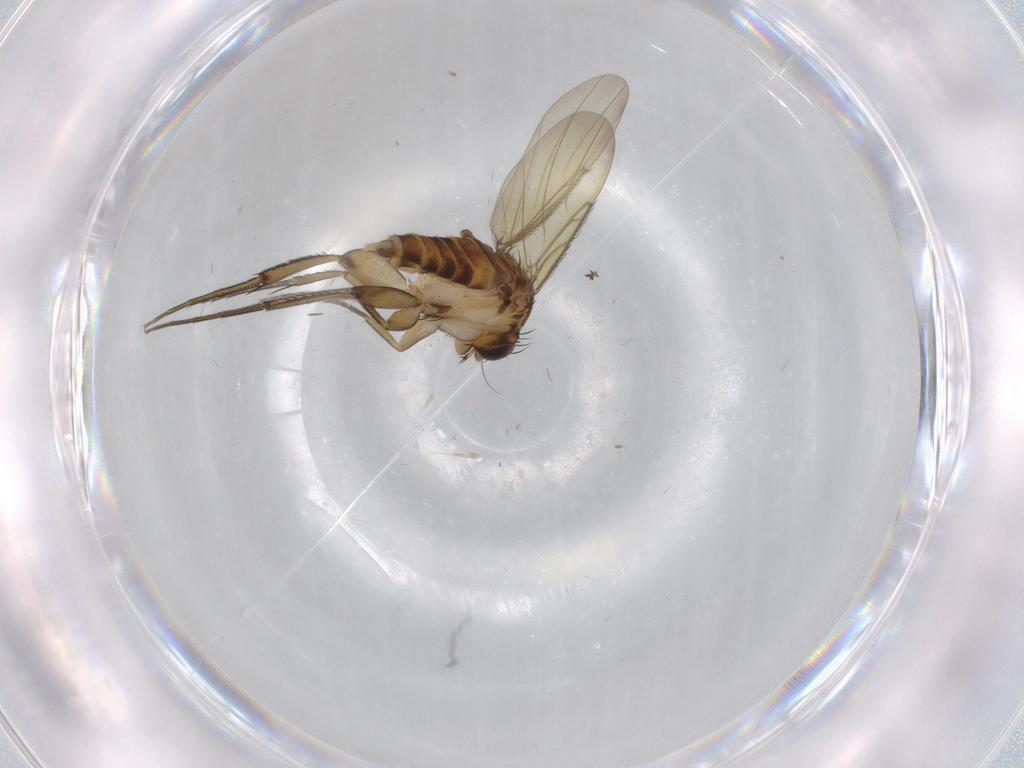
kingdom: Animalia
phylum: Arthropoda
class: Insecta
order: Diptera
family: Phoridae
